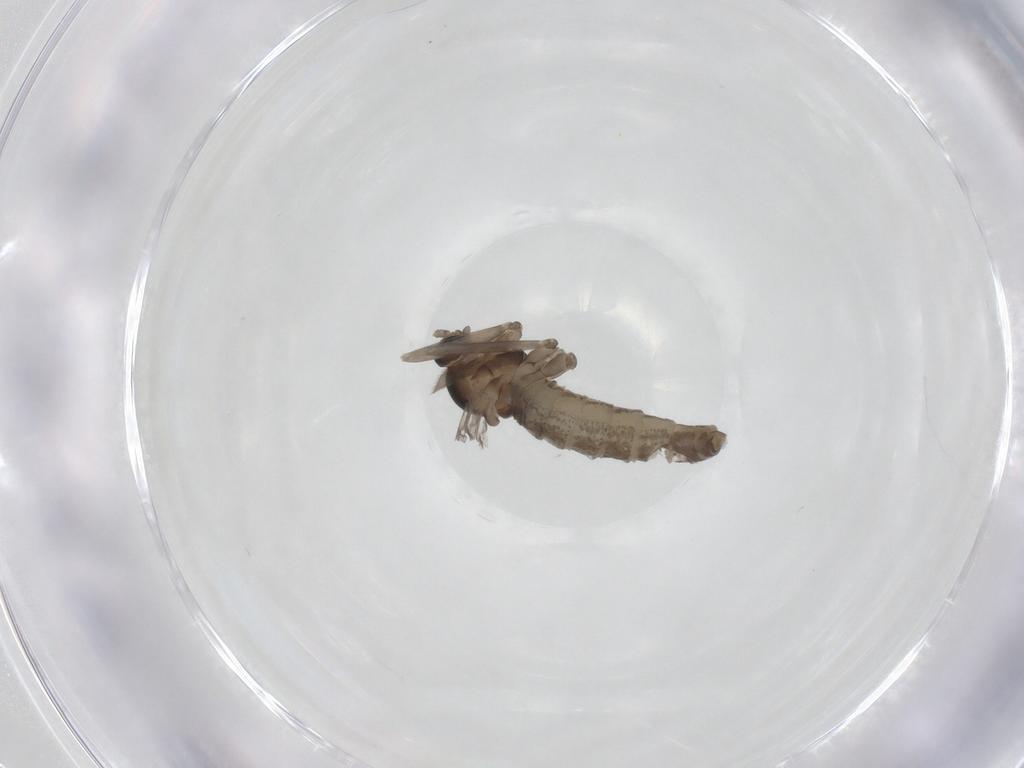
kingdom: Animalia
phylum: Arthropoda
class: Insecta
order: Diptera
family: Cecidomyiidae
